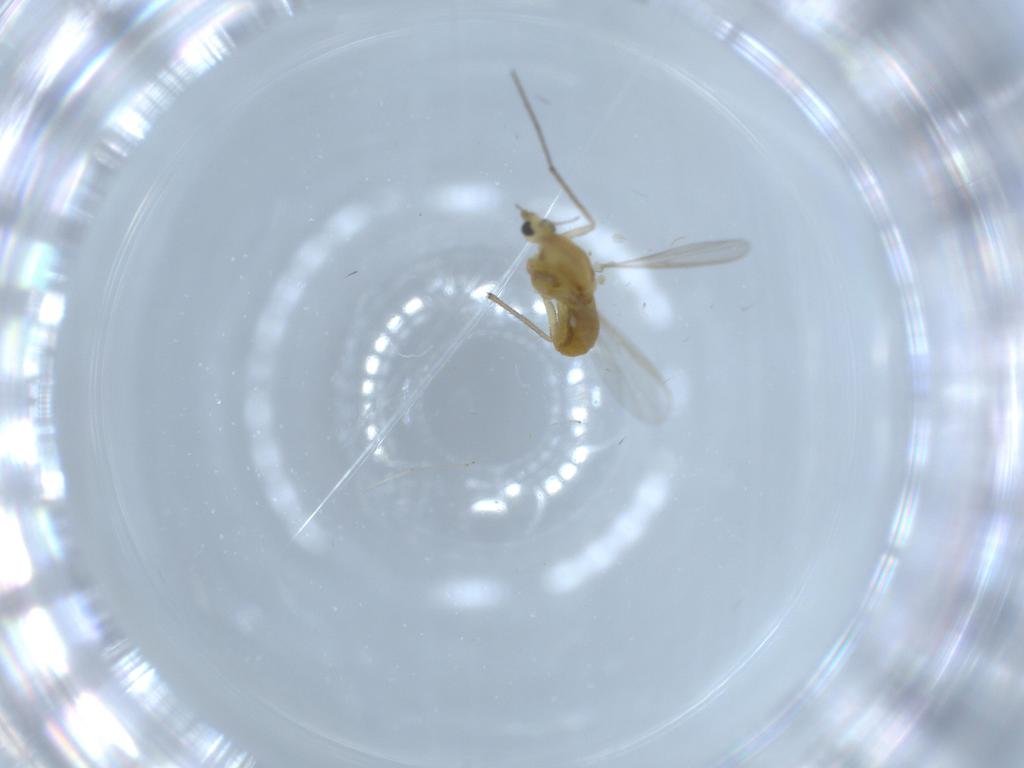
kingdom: Animalia
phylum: Arthropoda
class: Insecta
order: Diptera
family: Chironomidae
